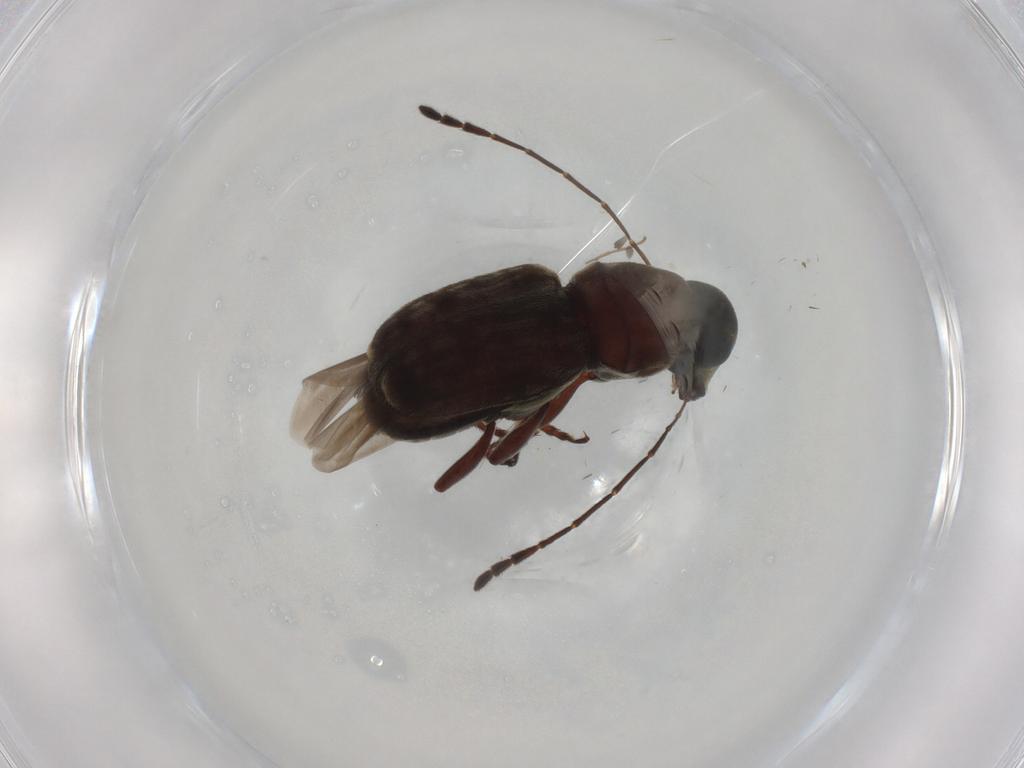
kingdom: Animalia
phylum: Arthropoda
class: Insecta
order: Coleoptera
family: Anthribidae
